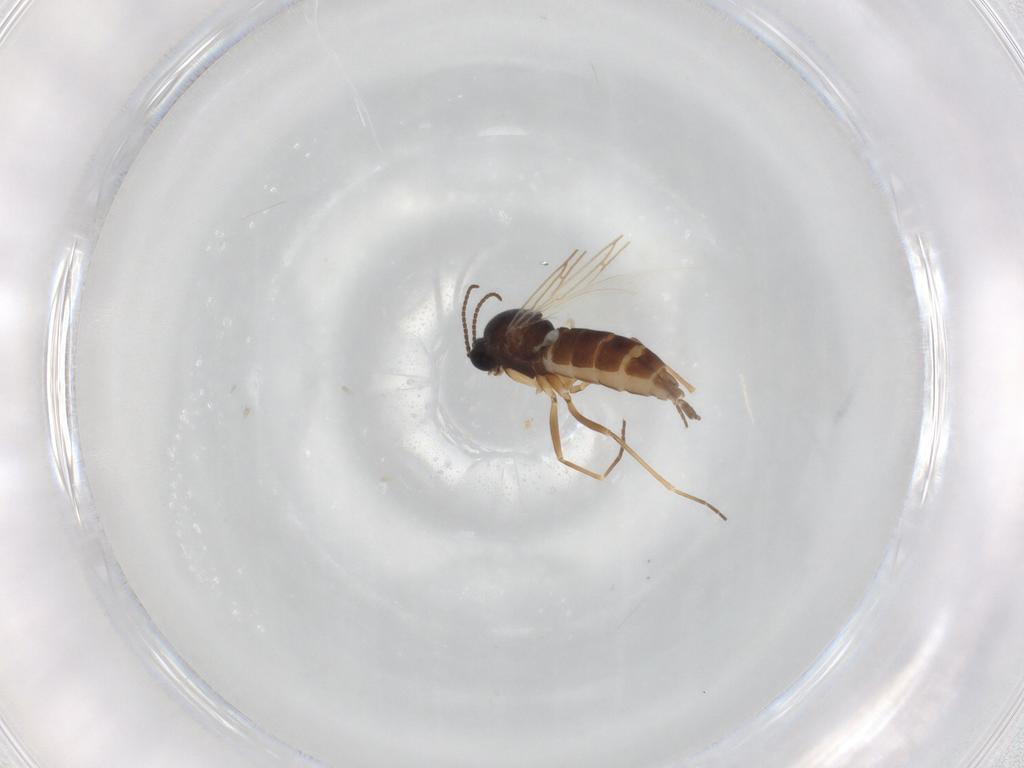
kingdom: Animalia
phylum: Arthropoda
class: Insecta
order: Diptera
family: Sciaridae
